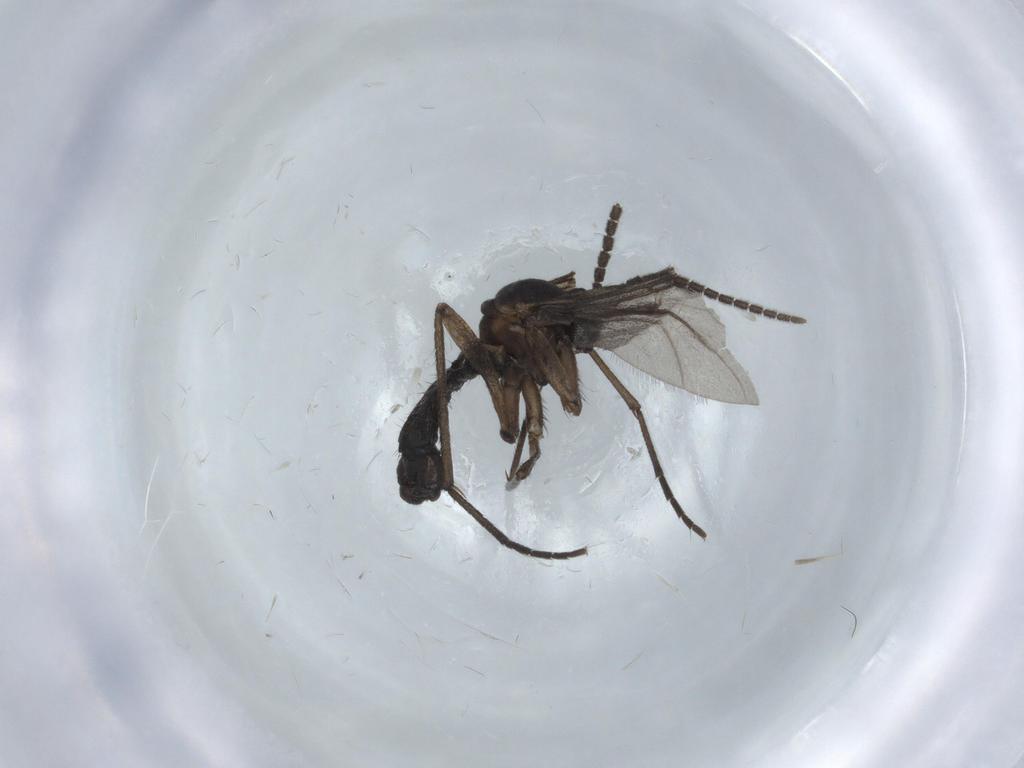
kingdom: Animalia
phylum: Arthropoda
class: Insecta
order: Diptera
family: Sciaridae
